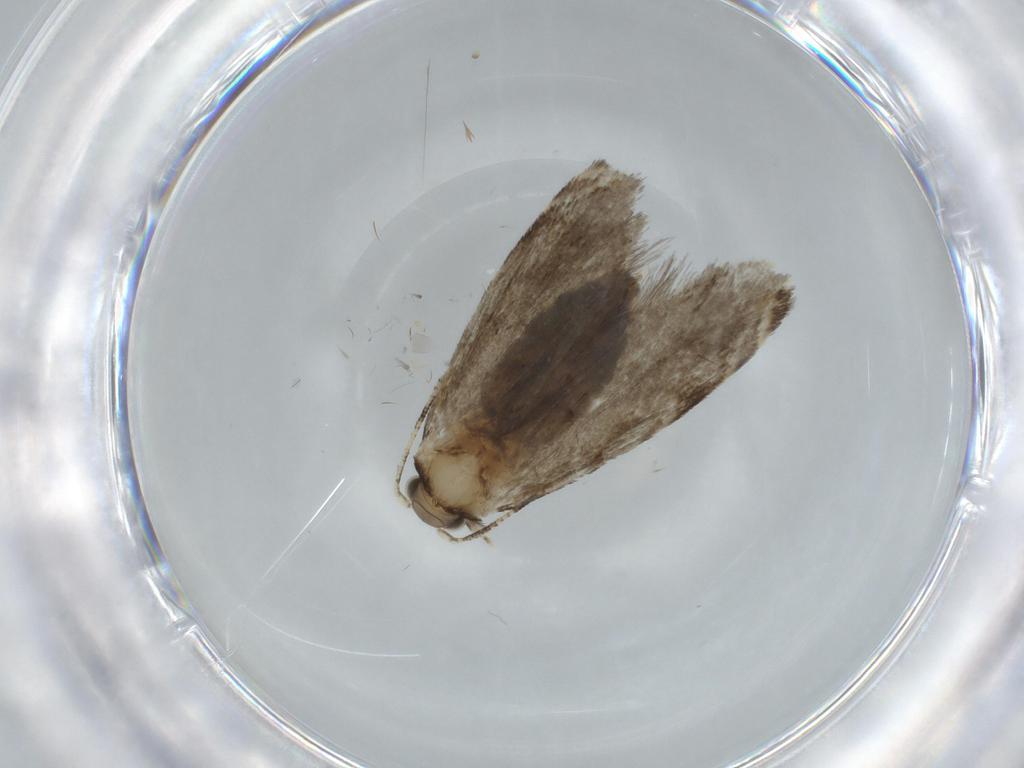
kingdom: Animalia
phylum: Arthropoda
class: Insecta
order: Lepidoptera
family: Tineidae
